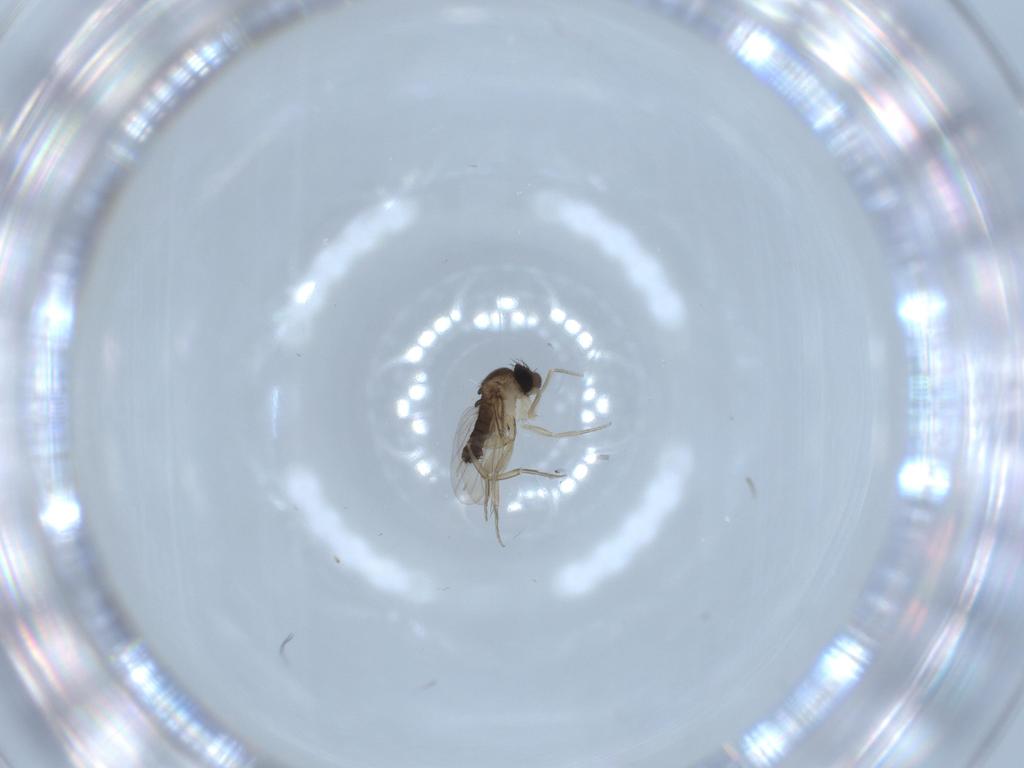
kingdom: Animalia
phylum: Arthropoda
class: Insecta
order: Diptera
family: Phoridae
